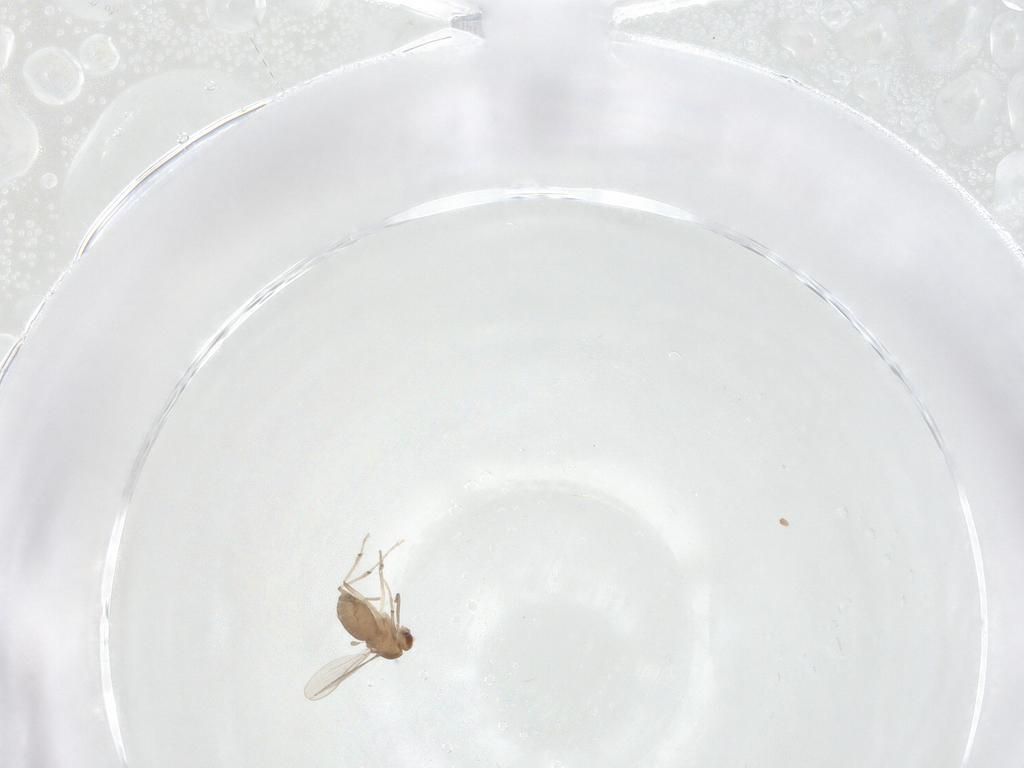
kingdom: Animalia
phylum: Arthropoda
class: Insecta
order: Diptera
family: Chironomidae
